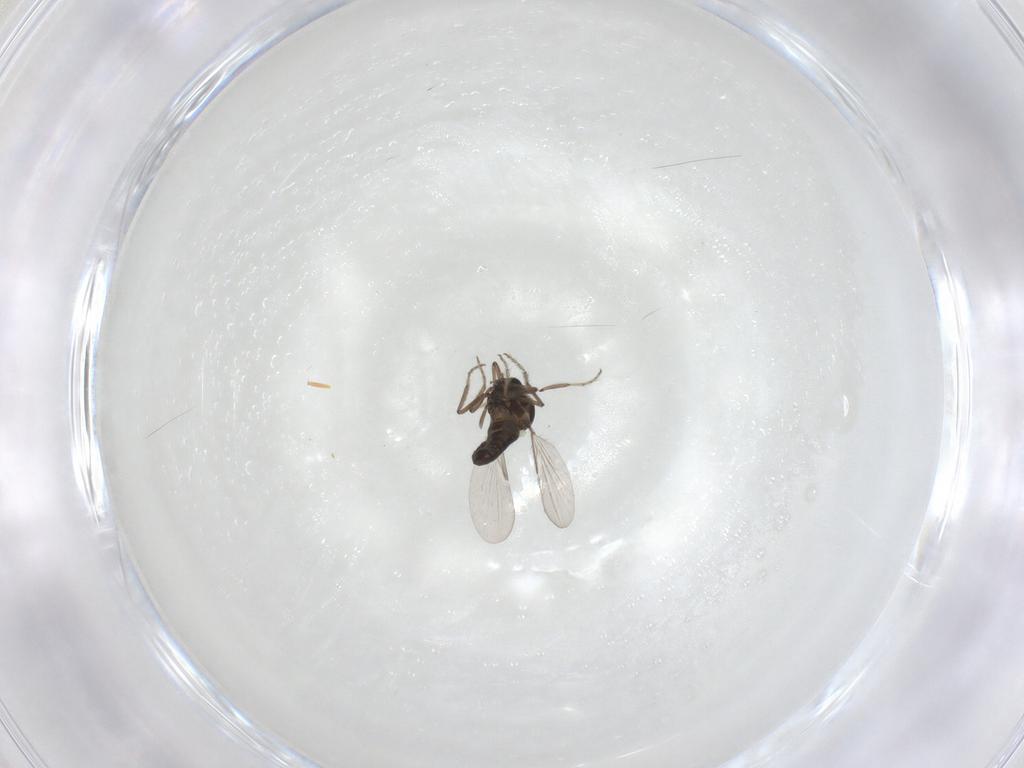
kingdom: Animalia
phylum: Arthropoda
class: Insecta
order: Diptera
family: Ceratopogonidae
